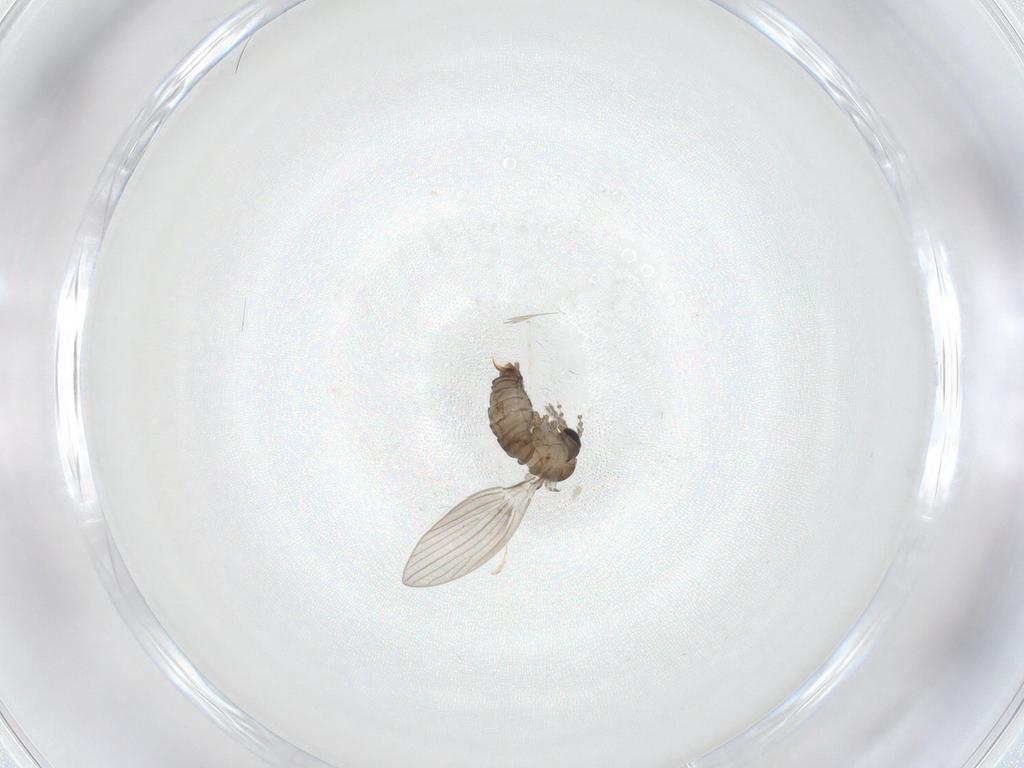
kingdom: Animalia
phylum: Arthropoda
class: Insecta
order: Diptera
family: Psychodidae
